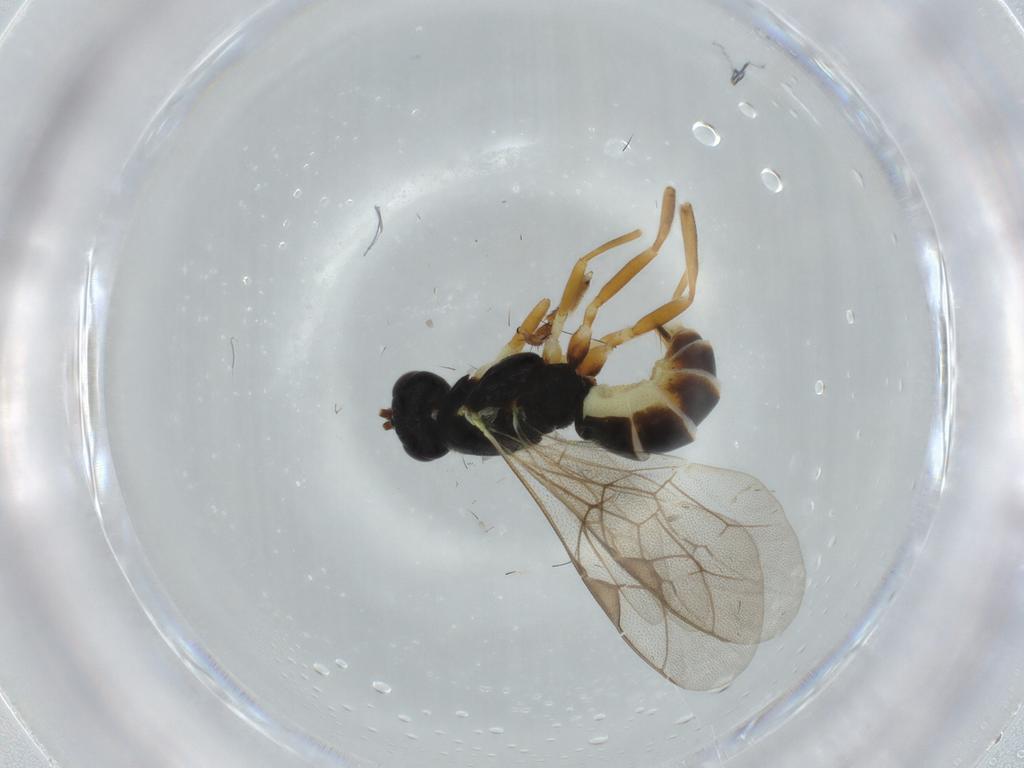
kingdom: Animalia
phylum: Arthropoda
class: Insecta
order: Hymenoptera
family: Ichneumonidae
